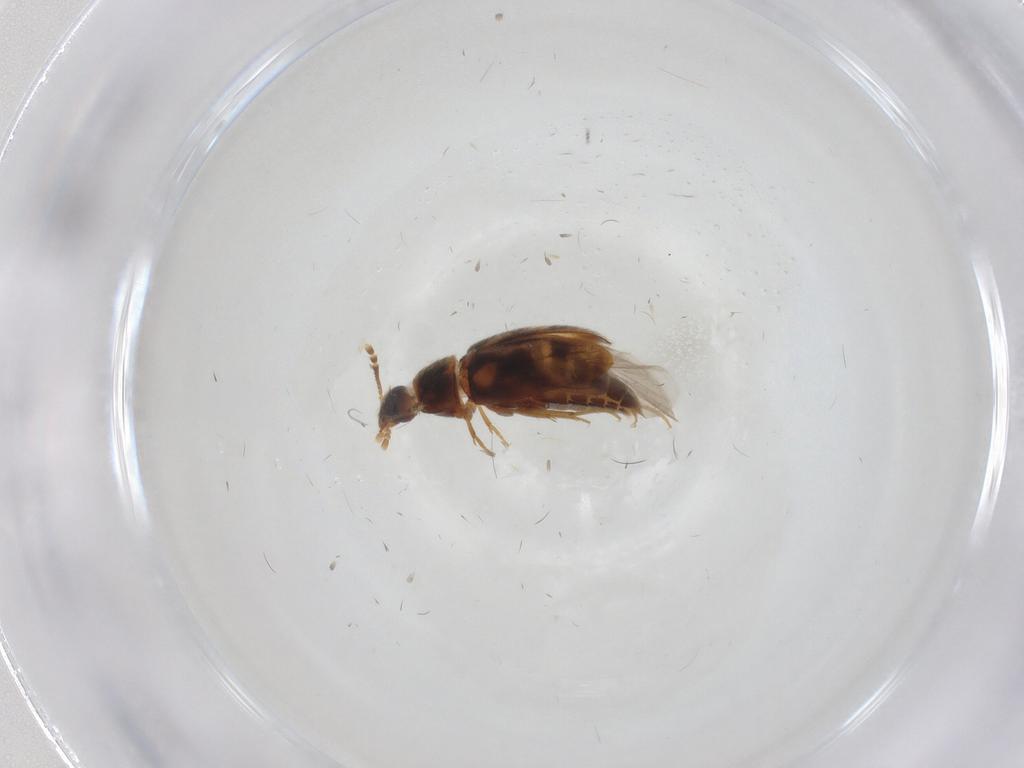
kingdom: Animalia
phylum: Arthropoda
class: Insecta
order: Coleoptera
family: Mycetophagidae
